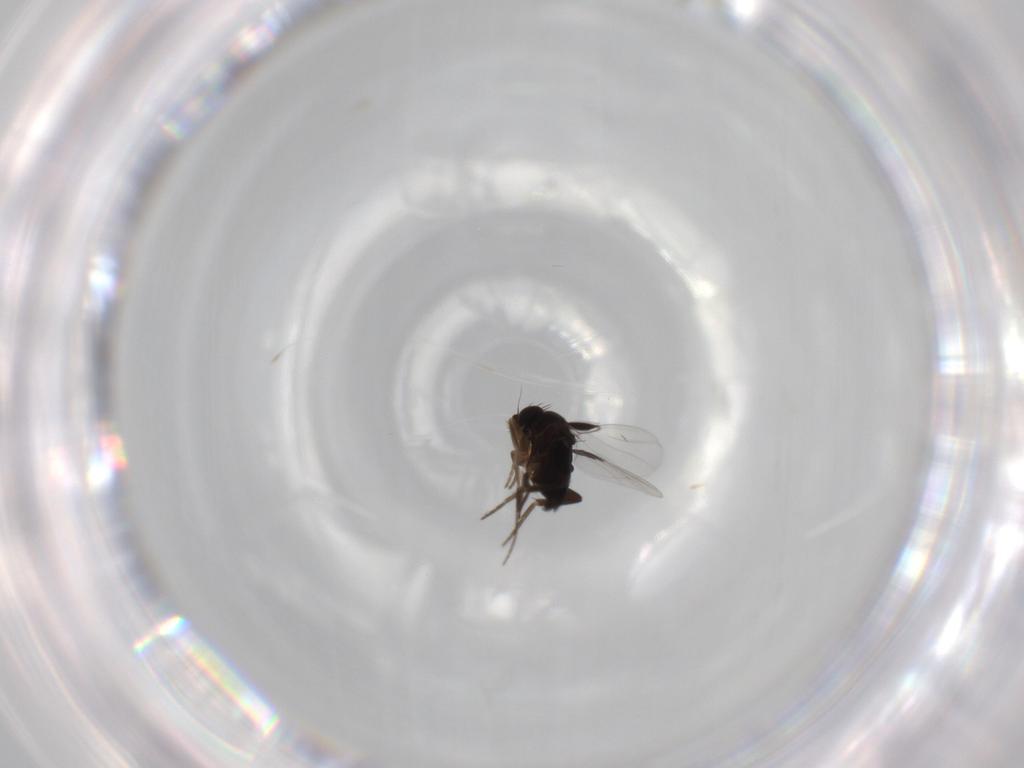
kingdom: Animalia
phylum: Arthropoda
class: Insecta
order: Diptera
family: Phoridae
